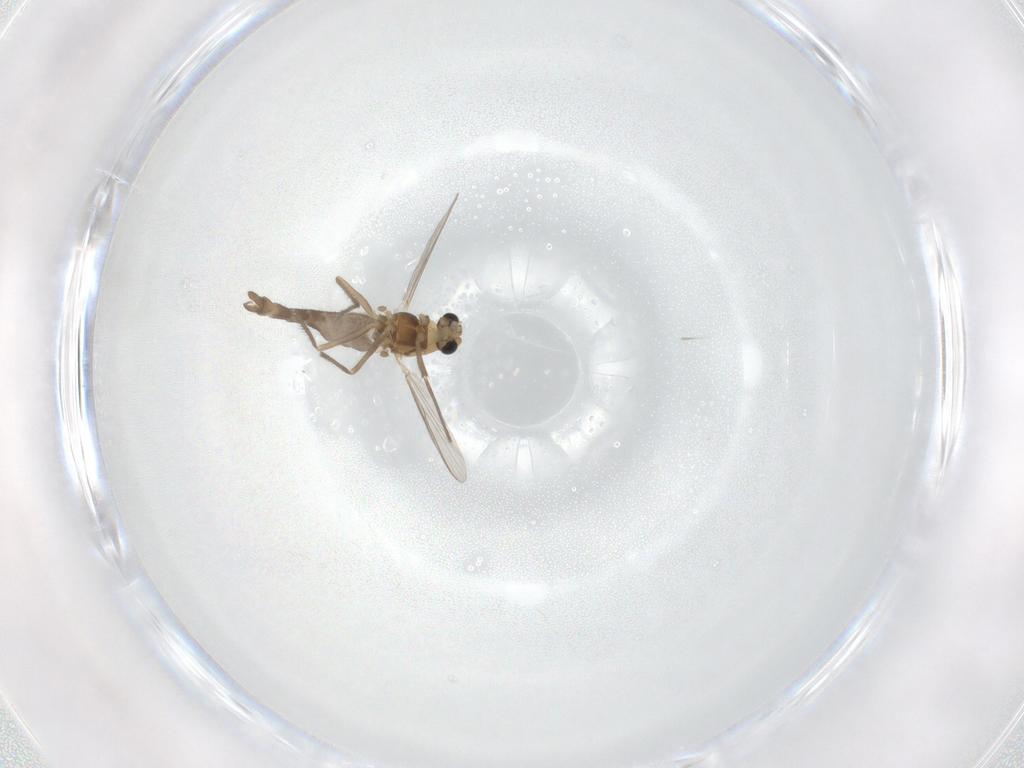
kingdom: Animalia
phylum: Arthropoda
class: Insecta
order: Diptera
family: Chironomidae
